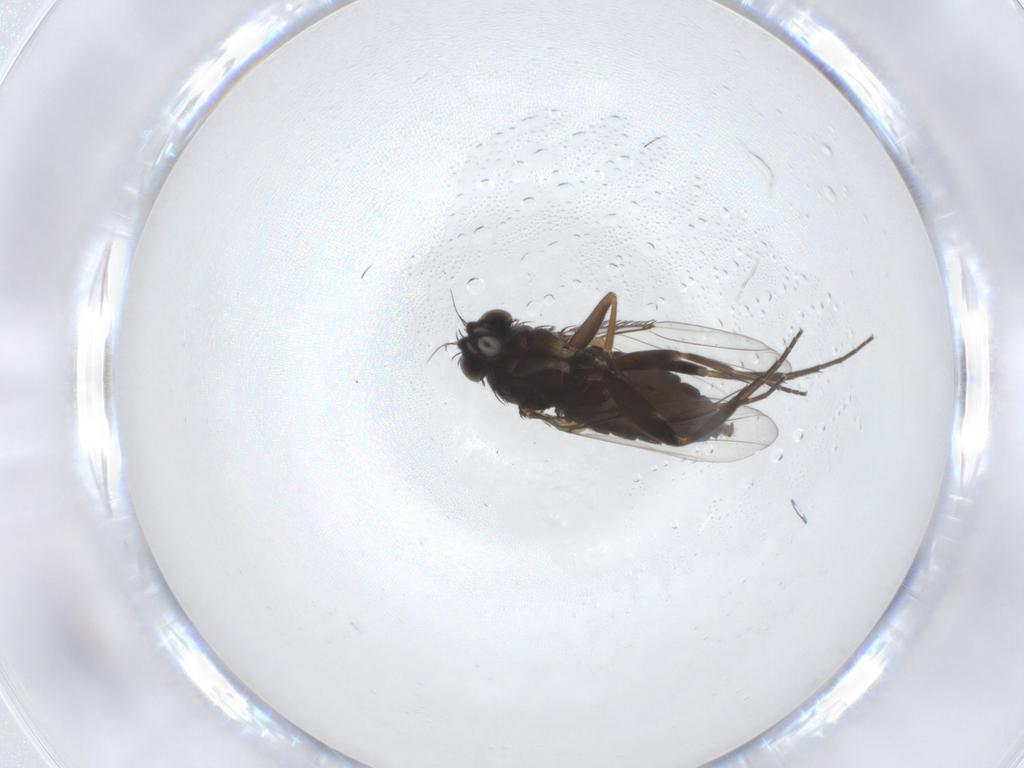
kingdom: Animalia
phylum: Arthropoda
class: Insecta
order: Diptera
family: Phoridae
